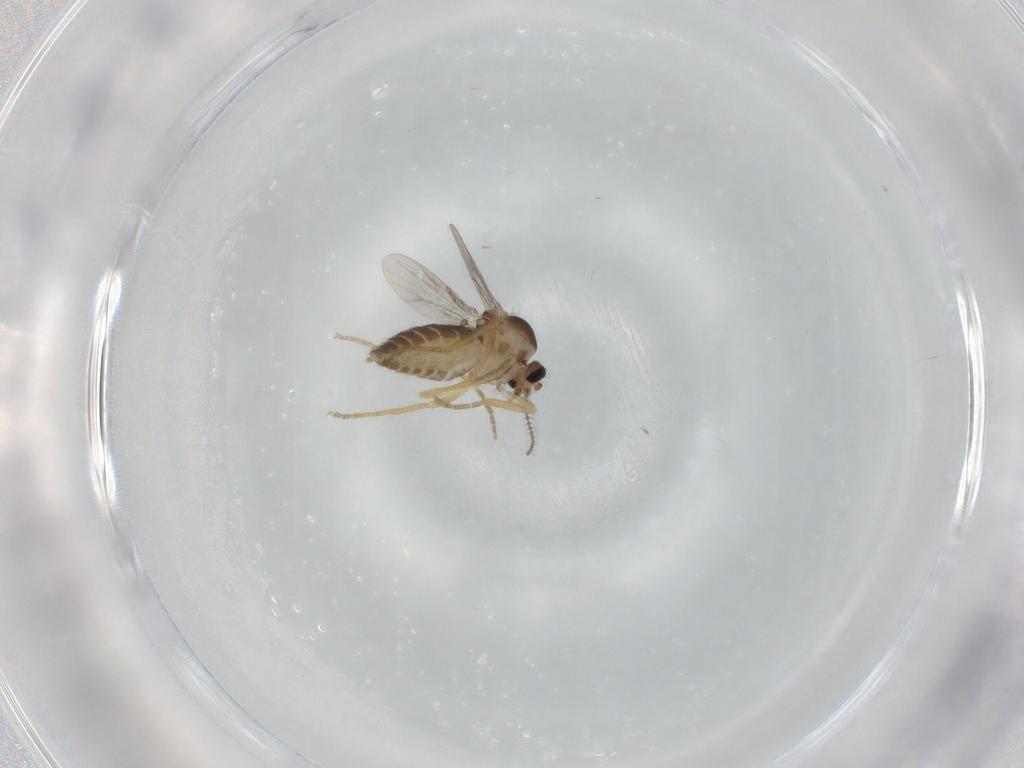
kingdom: Animalia
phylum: Arthropoda
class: Insecta
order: Diptera
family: Ceratopogonidae
